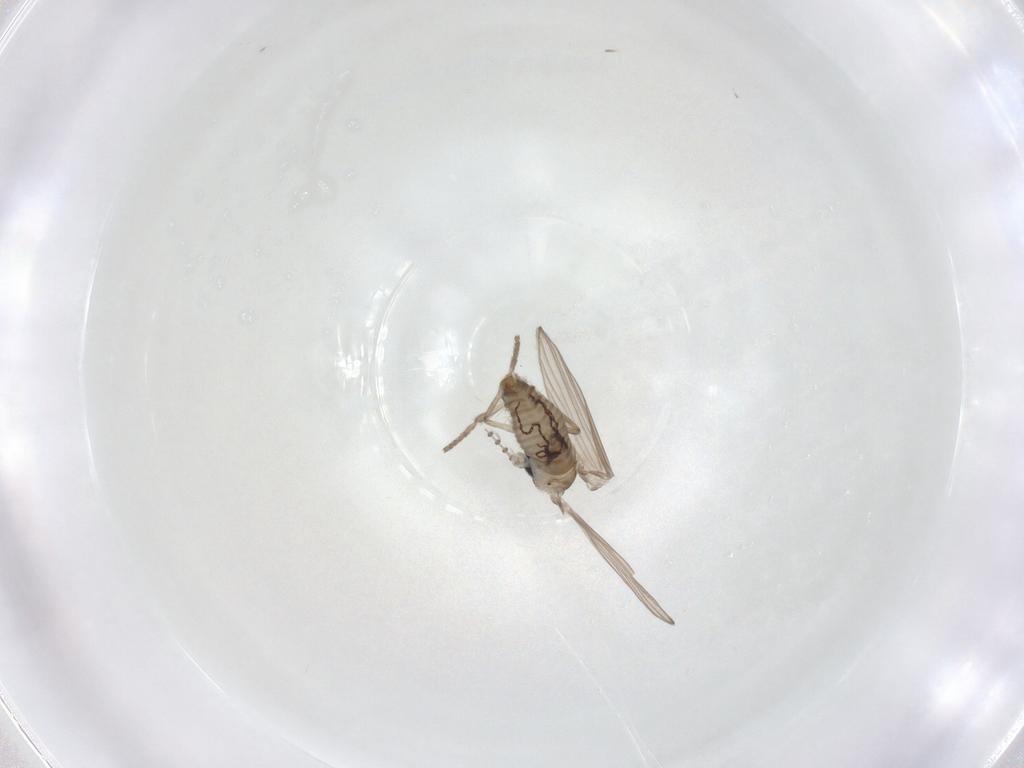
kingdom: Animalia
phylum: Arthropoda
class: Insecta
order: Diptera
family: Psychodidae
